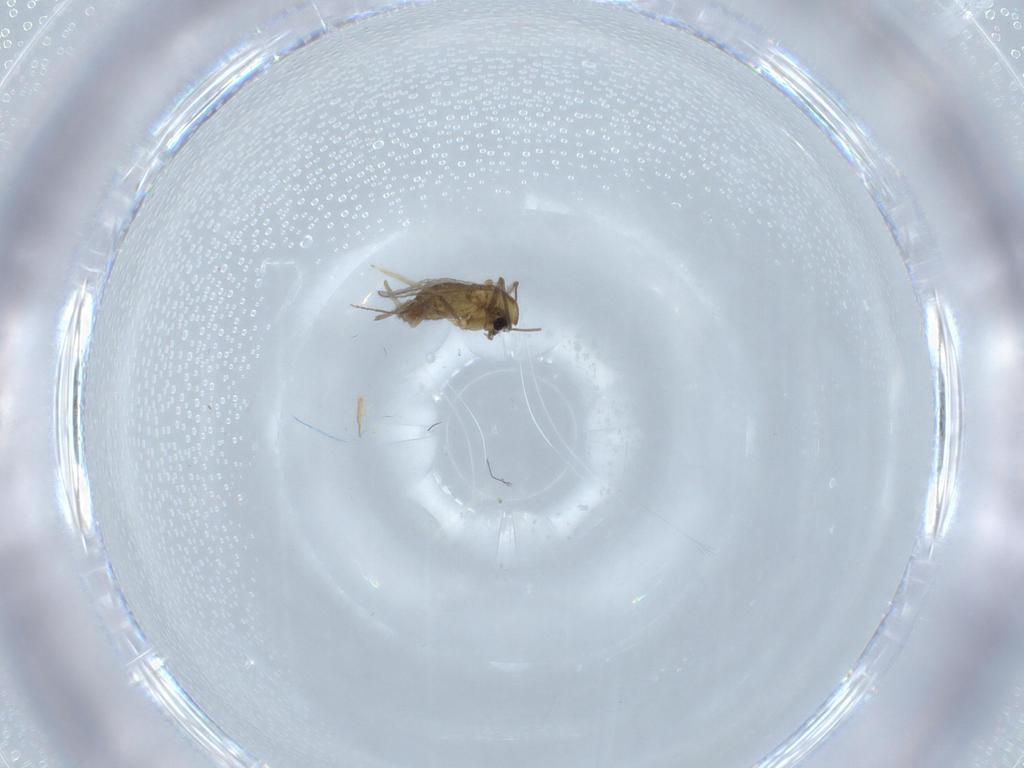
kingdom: Animalia
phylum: Arthropoda
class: Insecta
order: Diptera
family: Chironomidae
